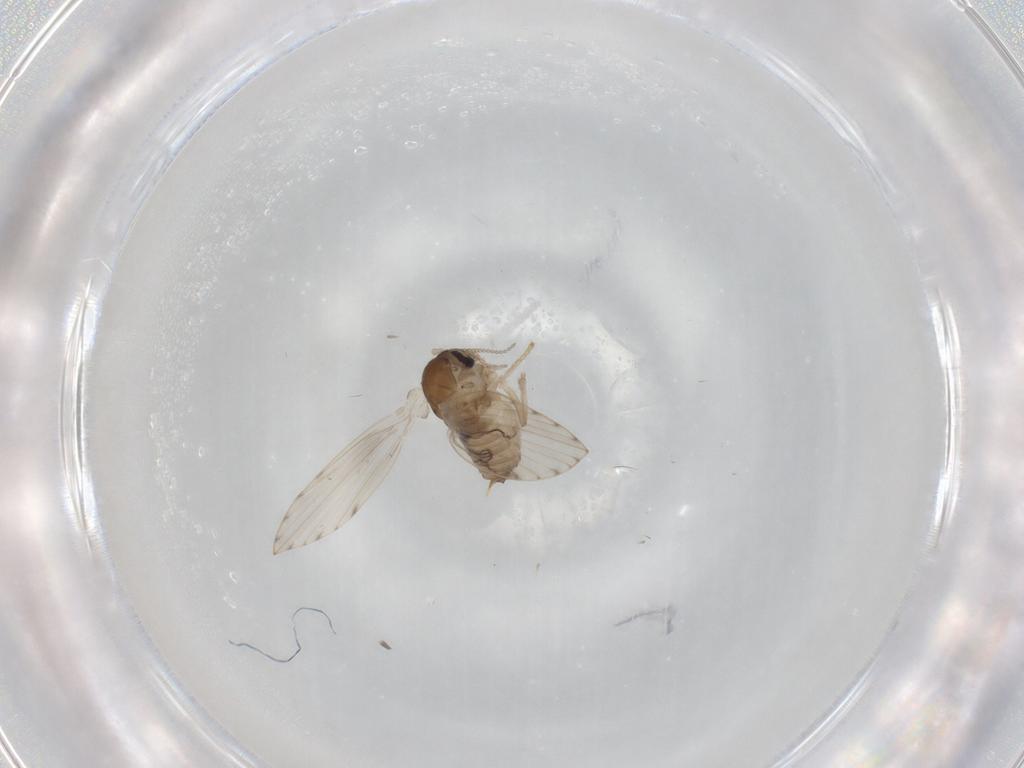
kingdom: Animalia
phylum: Arthropoda
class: Insecta
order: Diptera
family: Psychodidae
